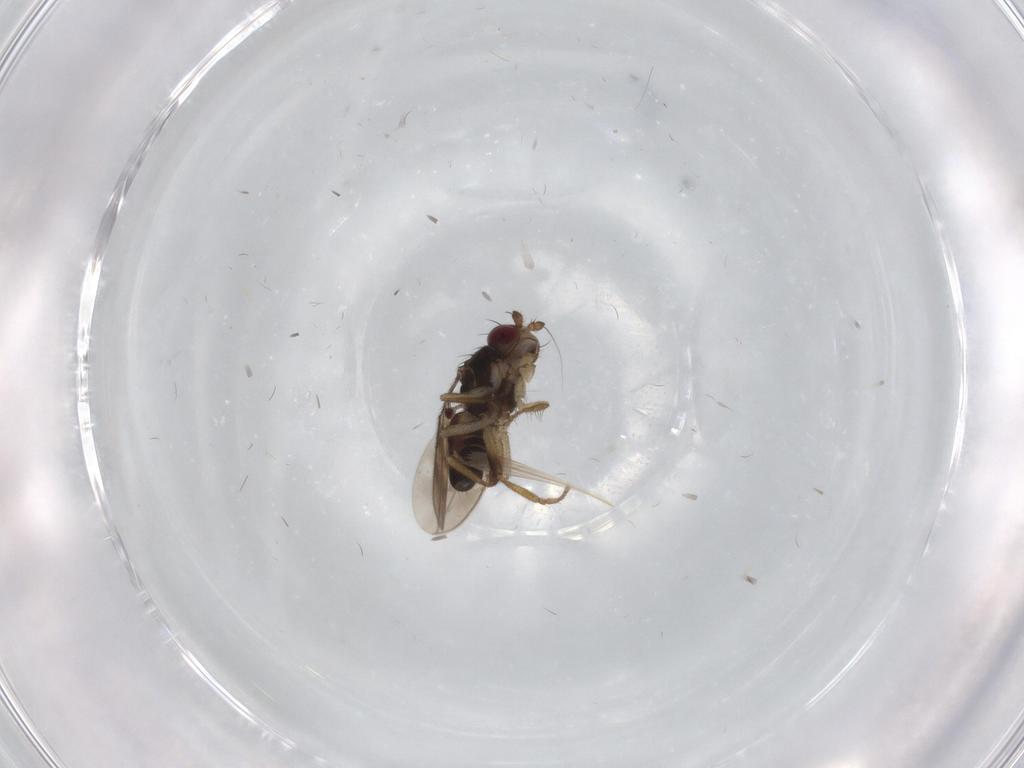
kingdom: Animalia
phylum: Arthropoda
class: Insecta
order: Diptera
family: Sphaeroceridae
